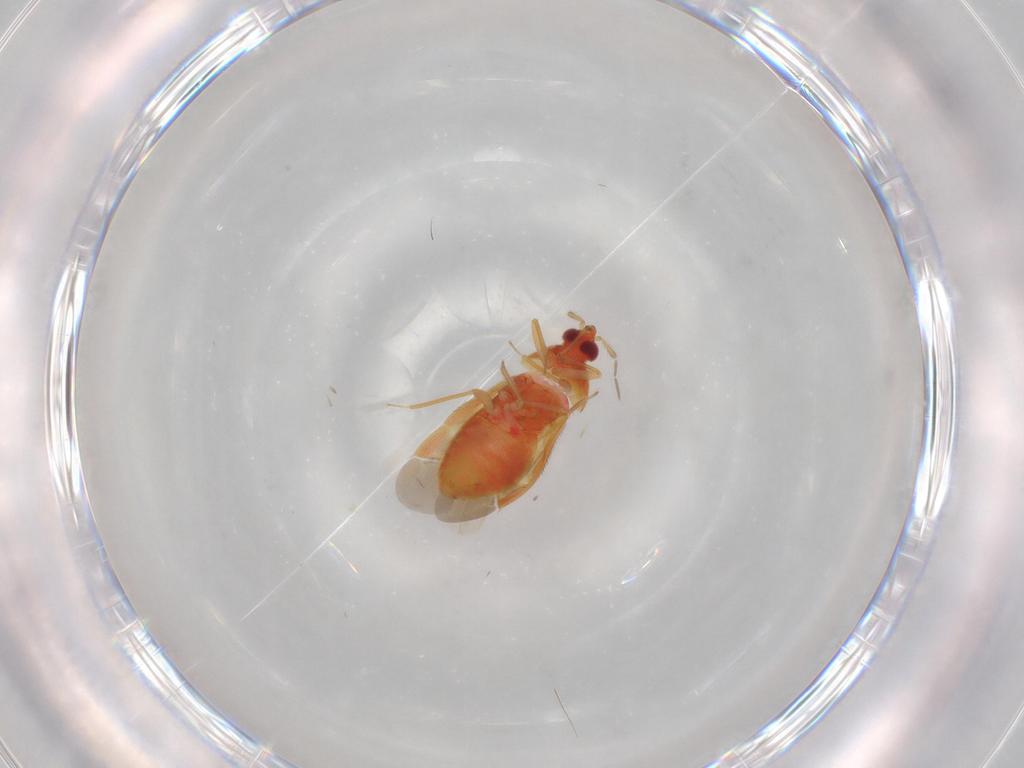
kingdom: Animalia
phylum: Arthropoda
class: Insecta
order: Hemiptera
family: Anthocoridae
